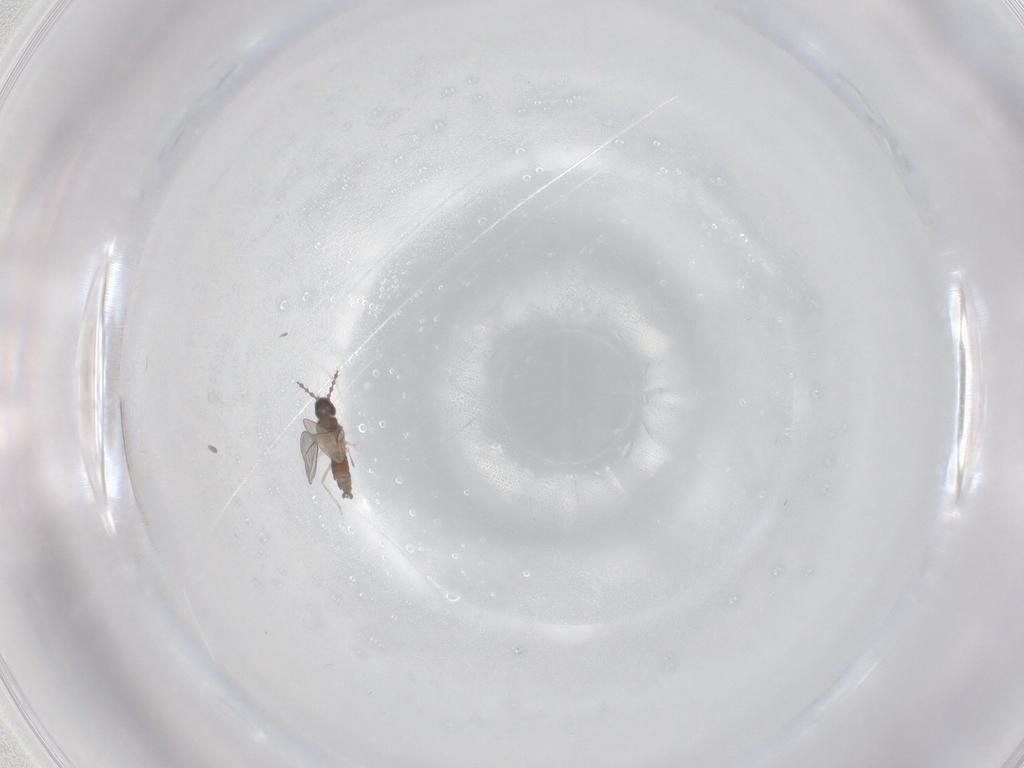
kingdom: Animalia
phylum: Arthropoda
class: Insecta
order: Diptera
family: Cecidomyiidae
